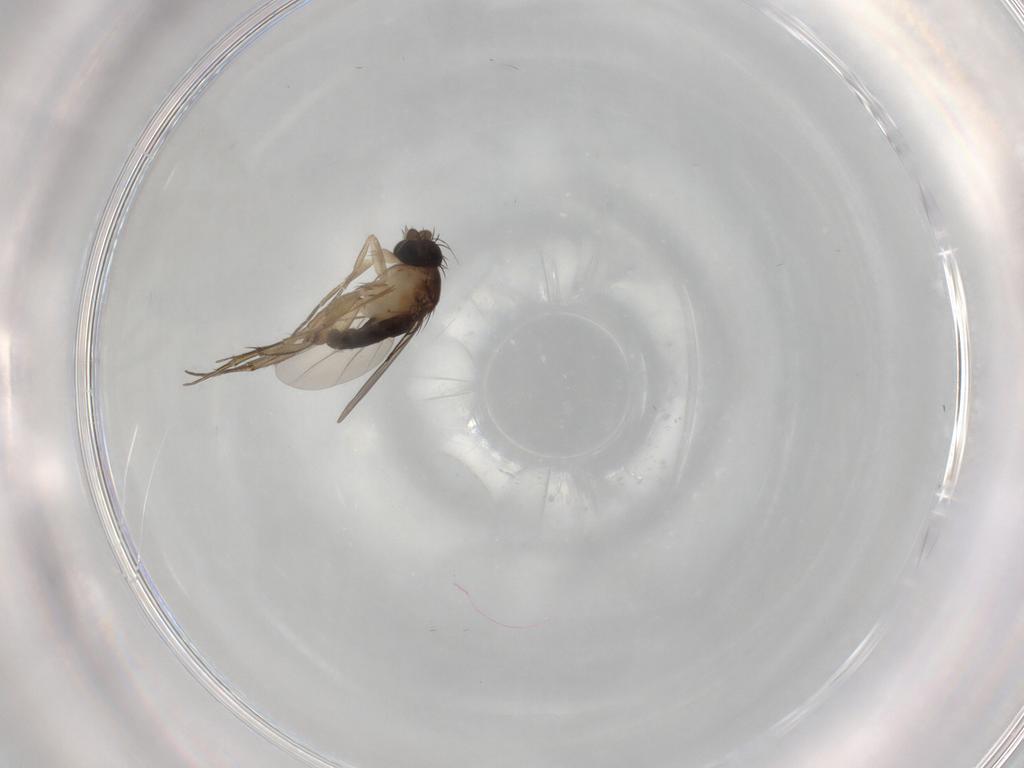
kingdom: Animalia
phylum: Arthropoda
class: Insecta
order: Diptera
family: Phoridae
